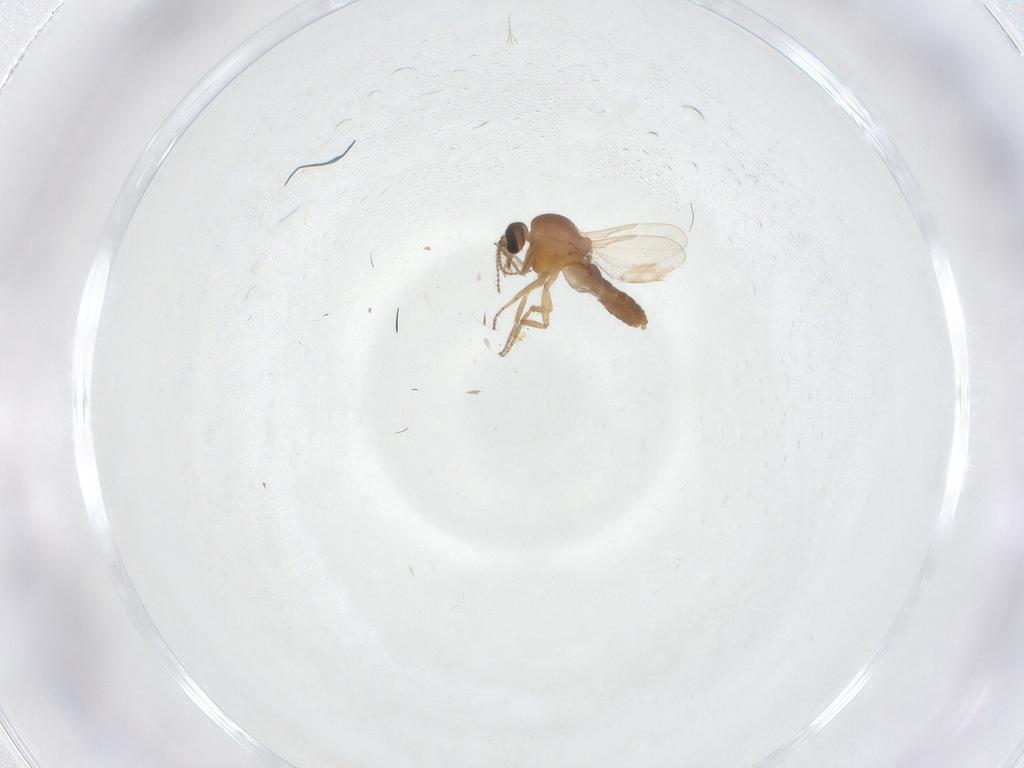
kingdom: Animalia
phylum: Arthropoda
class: Insecta
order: Diptera
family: Ceratopogonidae
